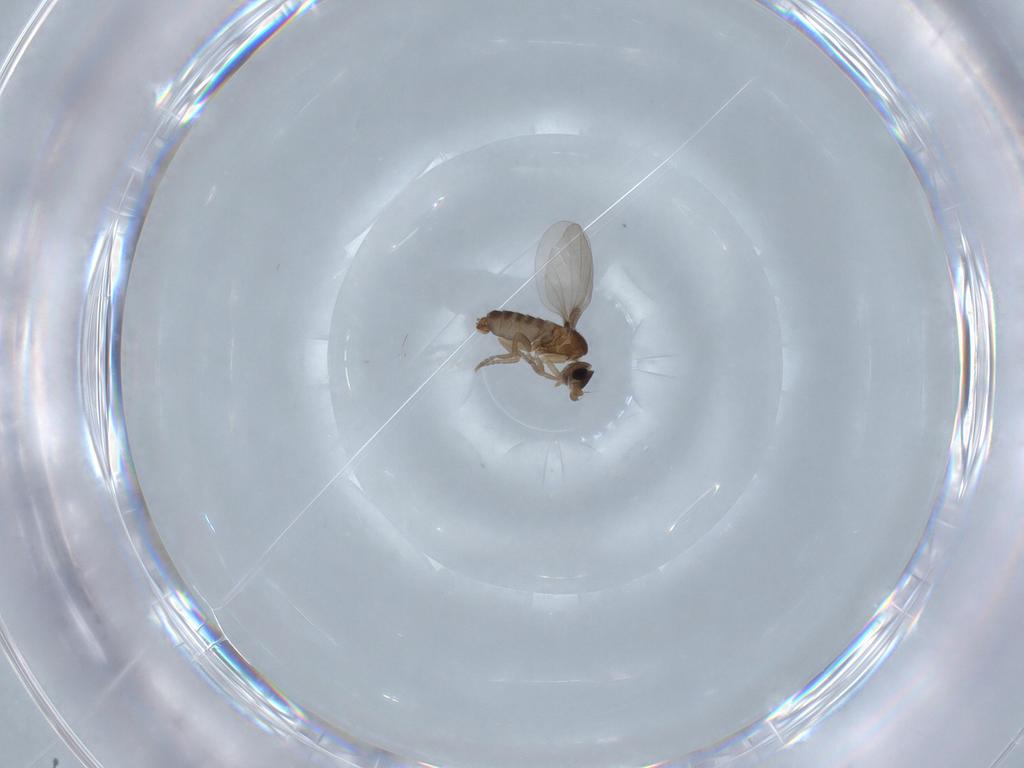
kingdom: Animalia
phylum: Arthropoda
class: Insecta
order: Diptera
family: Phoridae
